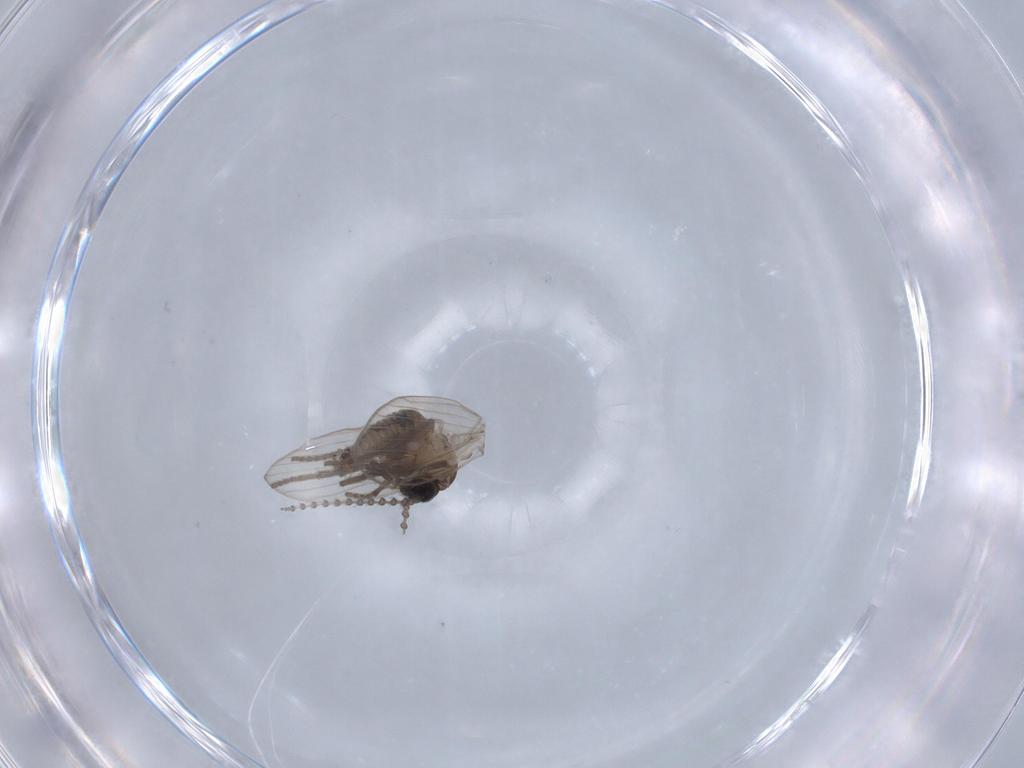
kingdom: Animalia
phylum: Arthropoda
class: Insecta
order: Diptera
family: Psychodidae
